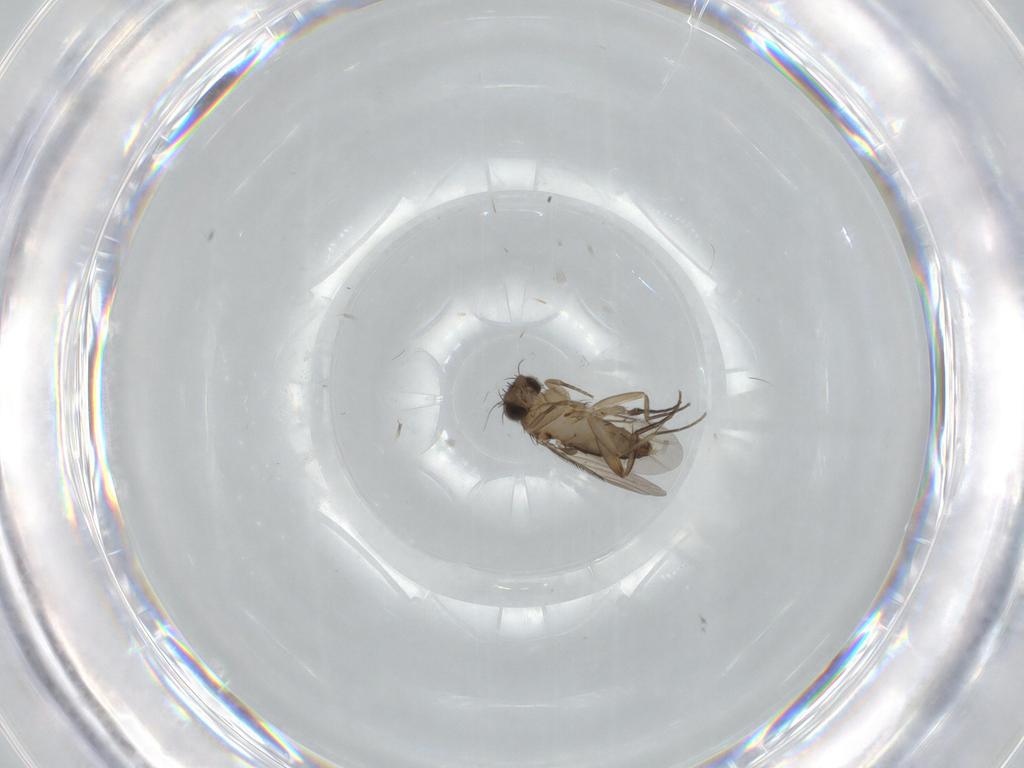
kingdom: Animalia
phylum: Arthropoda
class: Insecta
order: Diptera
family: Phoridae
